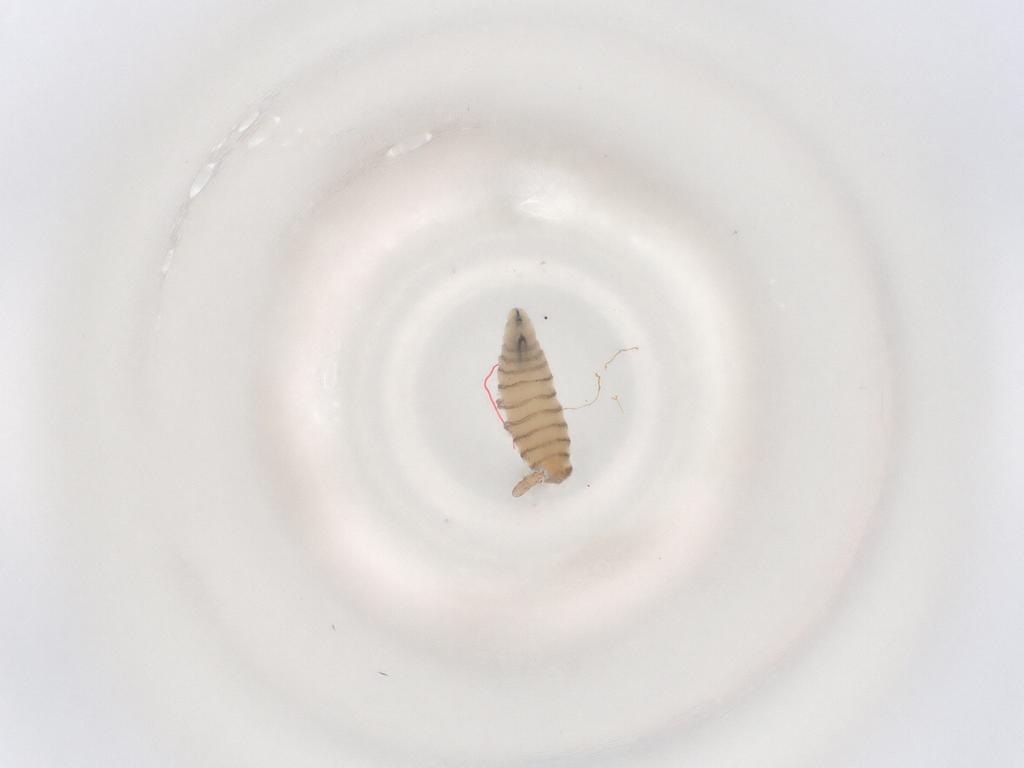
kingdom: Animalia
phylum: Arthropoda
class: Insecta
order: Diptera
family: Sarcophagidae
